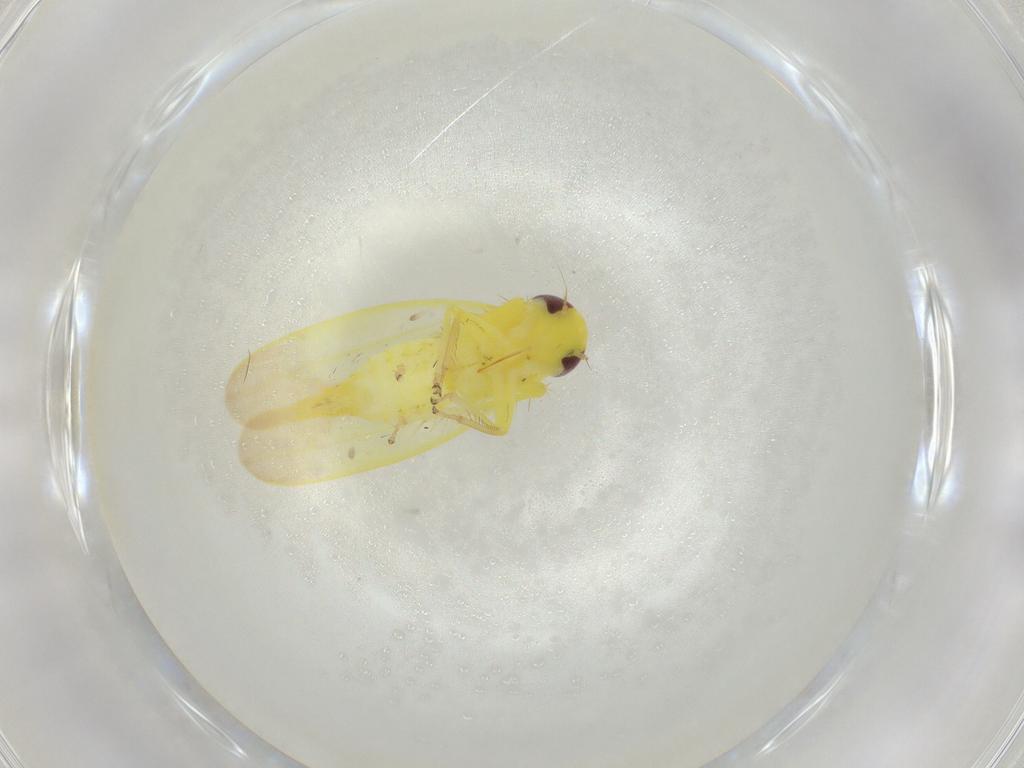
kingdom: Animalia
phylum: Arthropoda
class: Insecta
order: Hemiptera
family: Cicadellidae
